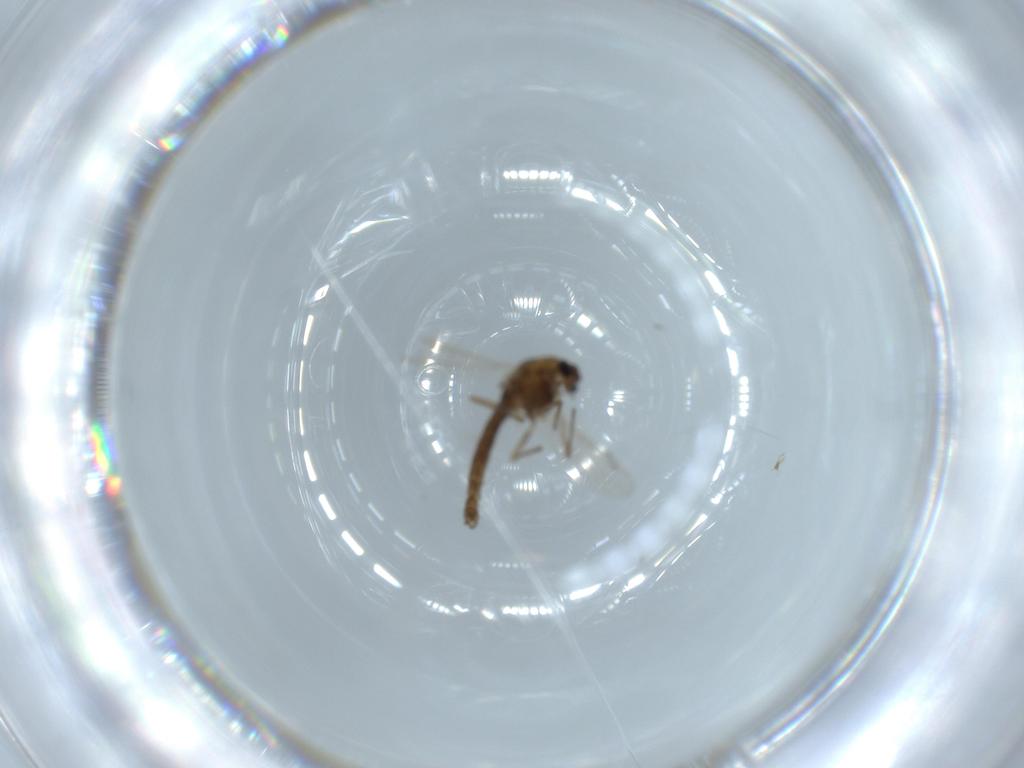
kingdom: Animalia
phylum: Arthropoda
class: Insecta
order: Diptera
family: Chironomidae
